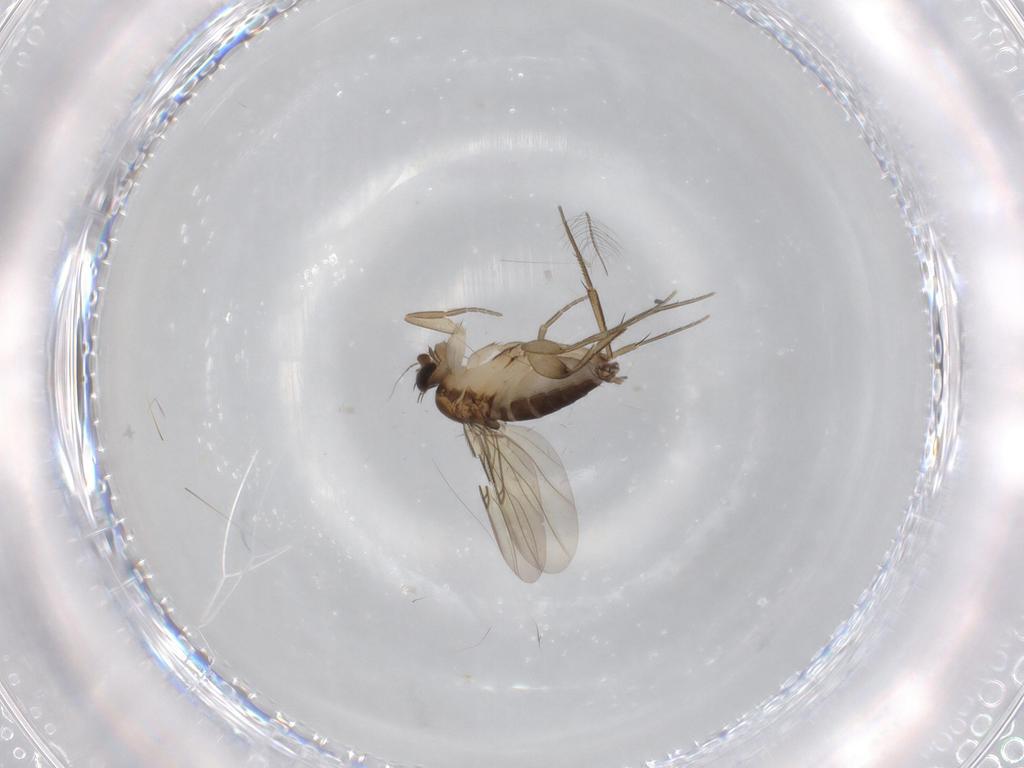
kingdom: Animalia
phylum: Arthropoda
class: Insecta
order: Diptera
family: Phoridae
